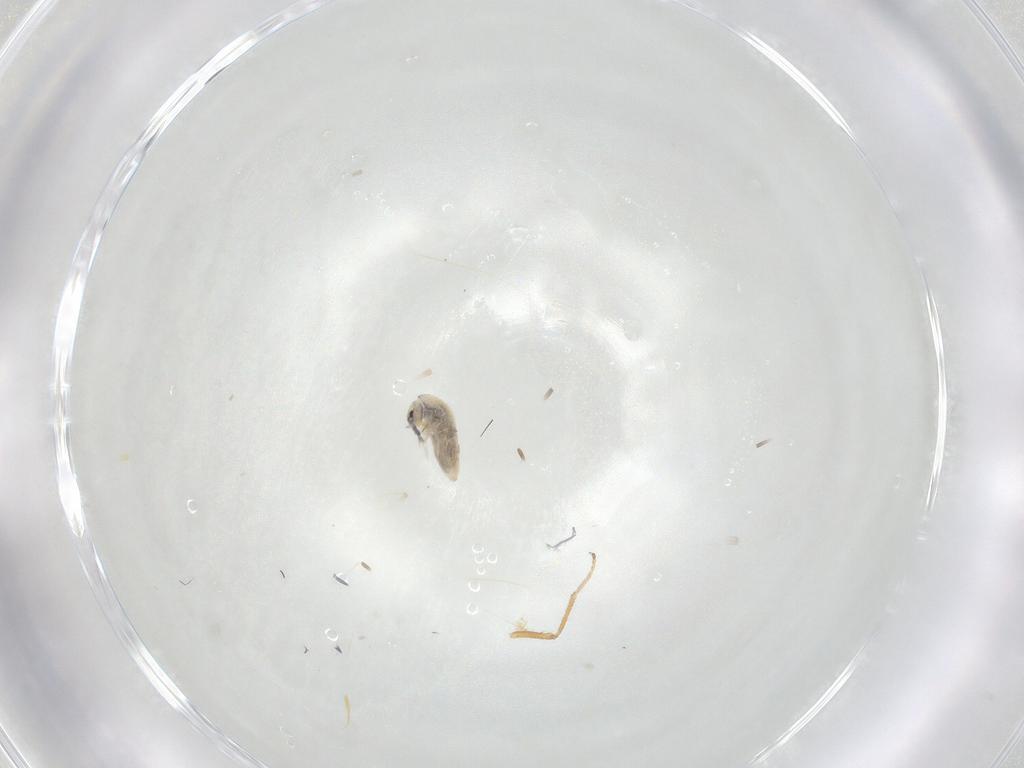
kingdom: Animalia
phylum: Arthropoda
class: Insecta
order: Diptera
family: Ephydridae
